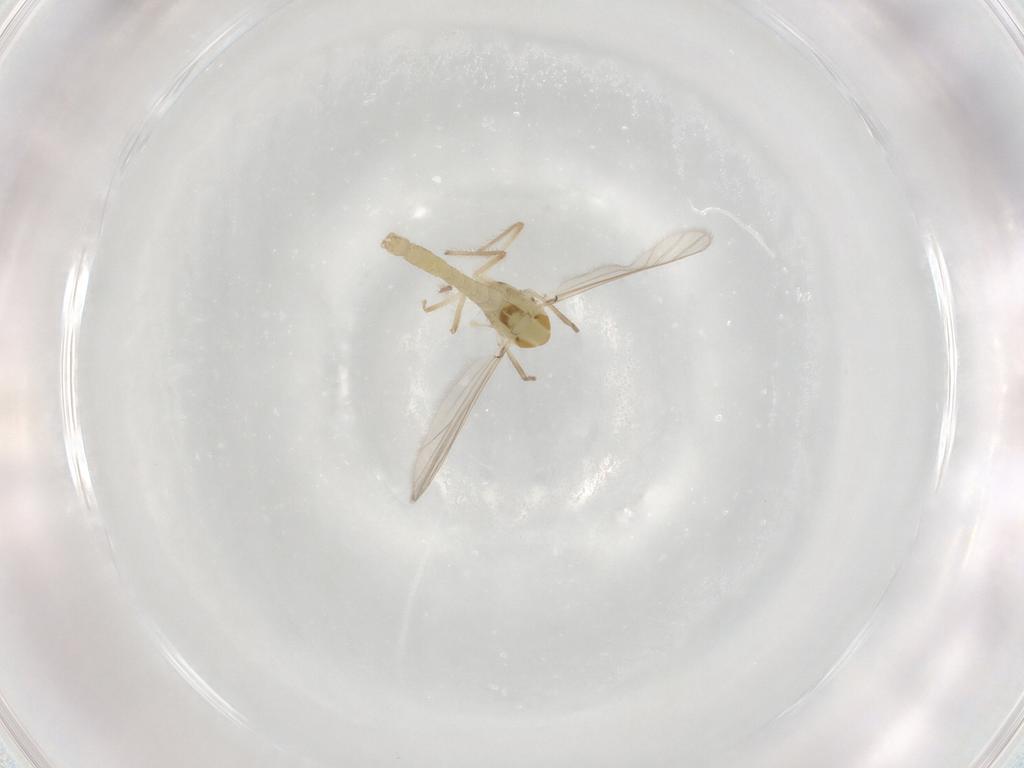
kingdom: Animalia
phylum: Arthropoda
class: Insecta
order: Diptera
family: Chironomidae
